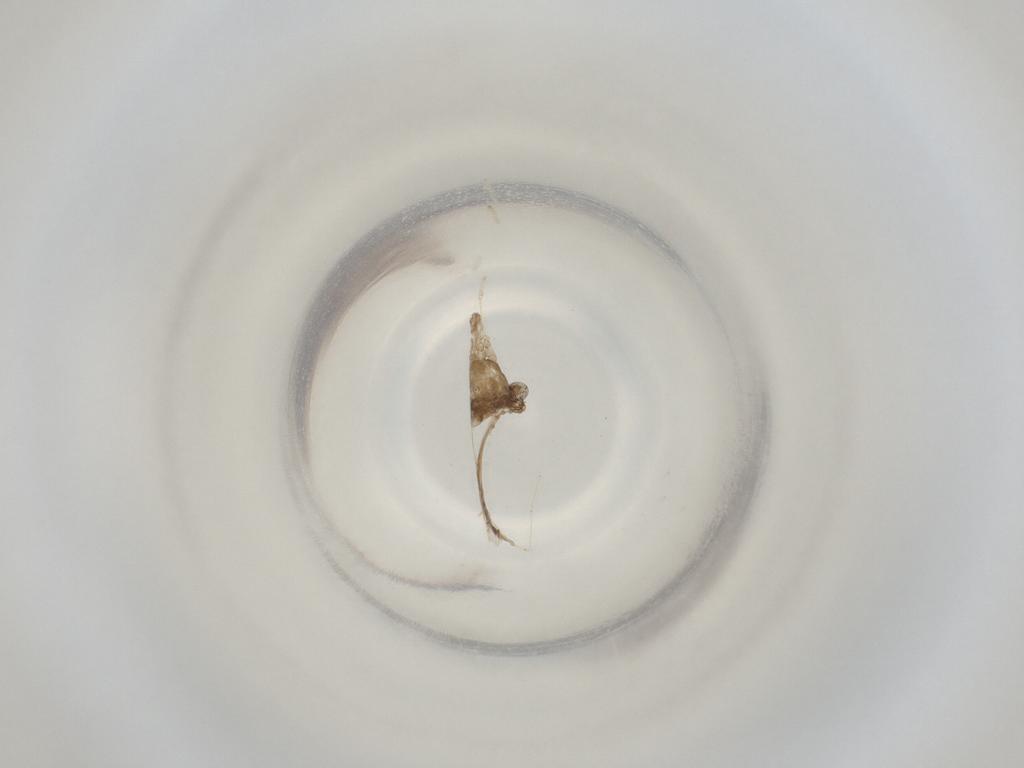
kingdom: Animalia
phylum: Arthropoda
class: Insecta
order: Diptera
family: Cecidomyiidae
